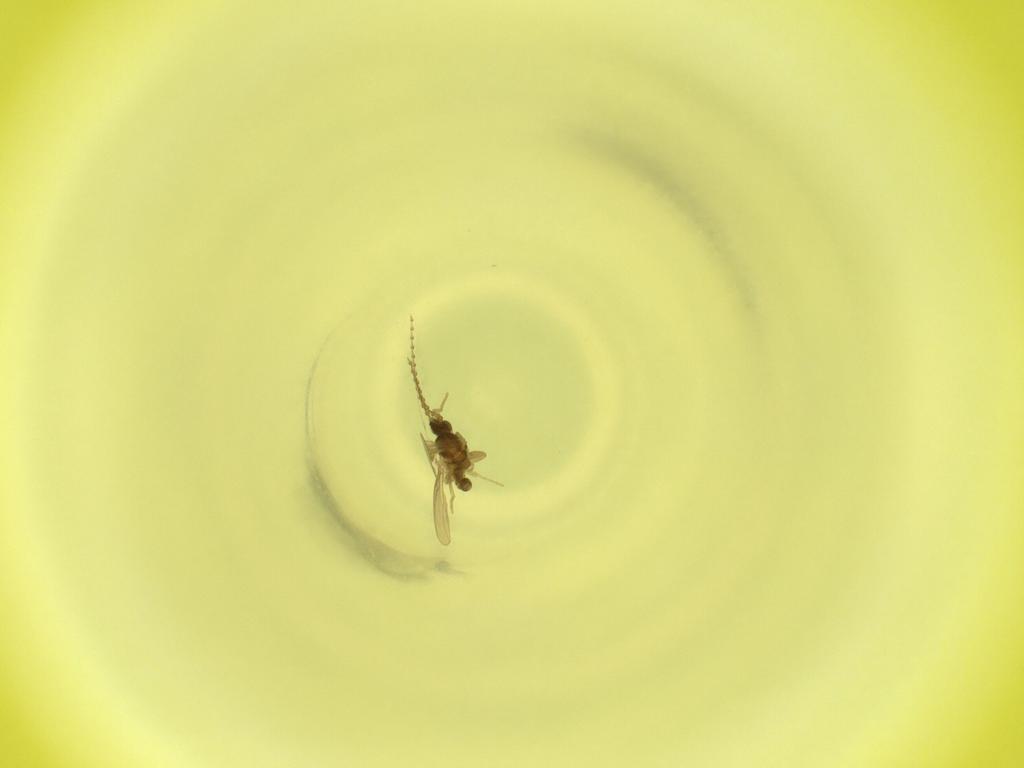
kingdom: Animalia
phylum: Arthropoda
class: Insecta
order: Diptera
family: Cecidomyiidae
